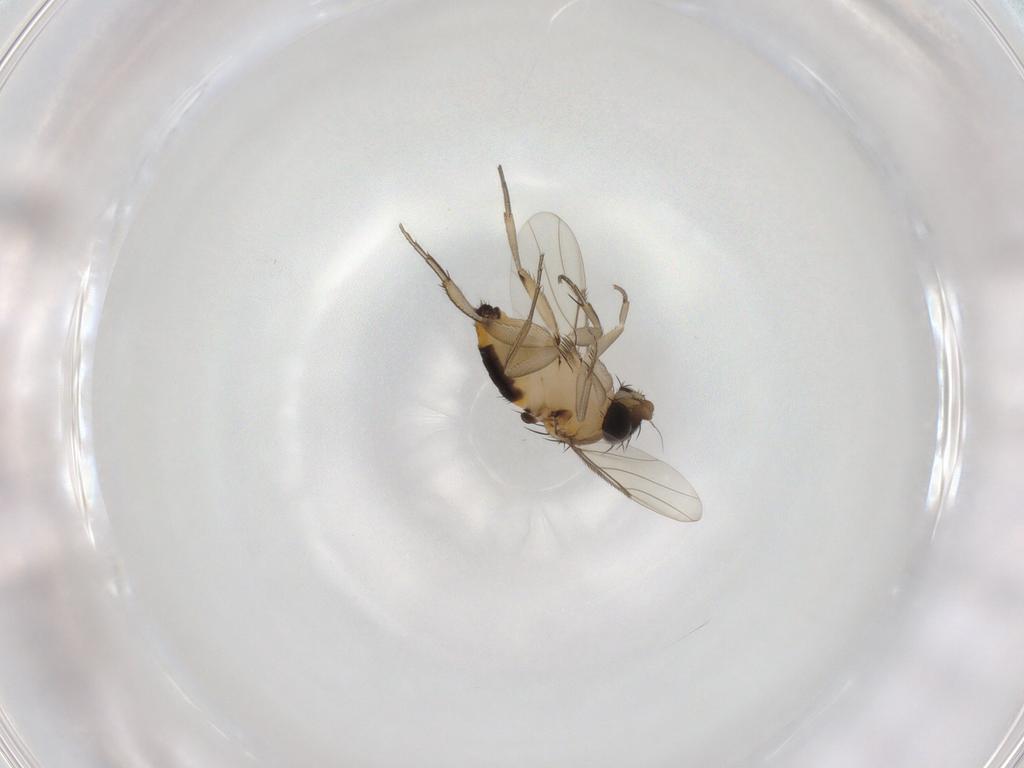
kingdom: Animalia
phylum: Arthropoda
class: Insecta
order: Diptera
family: Phoridae
